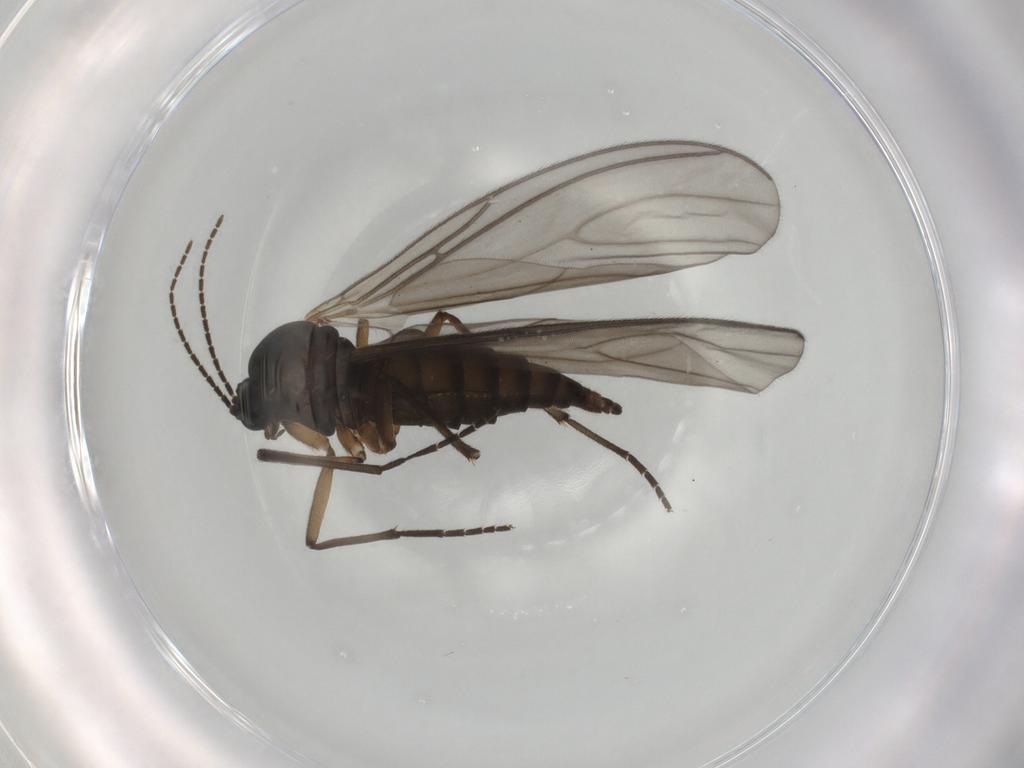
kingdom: Animalia
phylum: Arthropoda
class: Insecta
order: Diptera
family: Sciaridae
